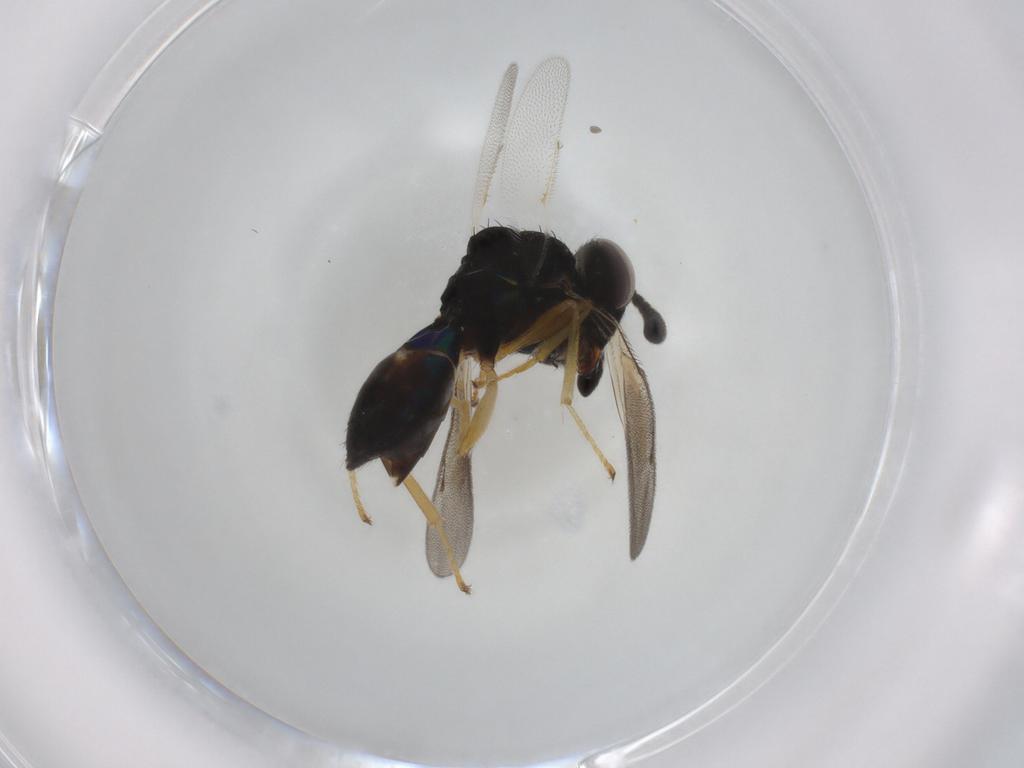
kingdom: Animalia
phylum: Arthropoda
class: Insecta
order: Hymenoptera
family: Pteromalidae
